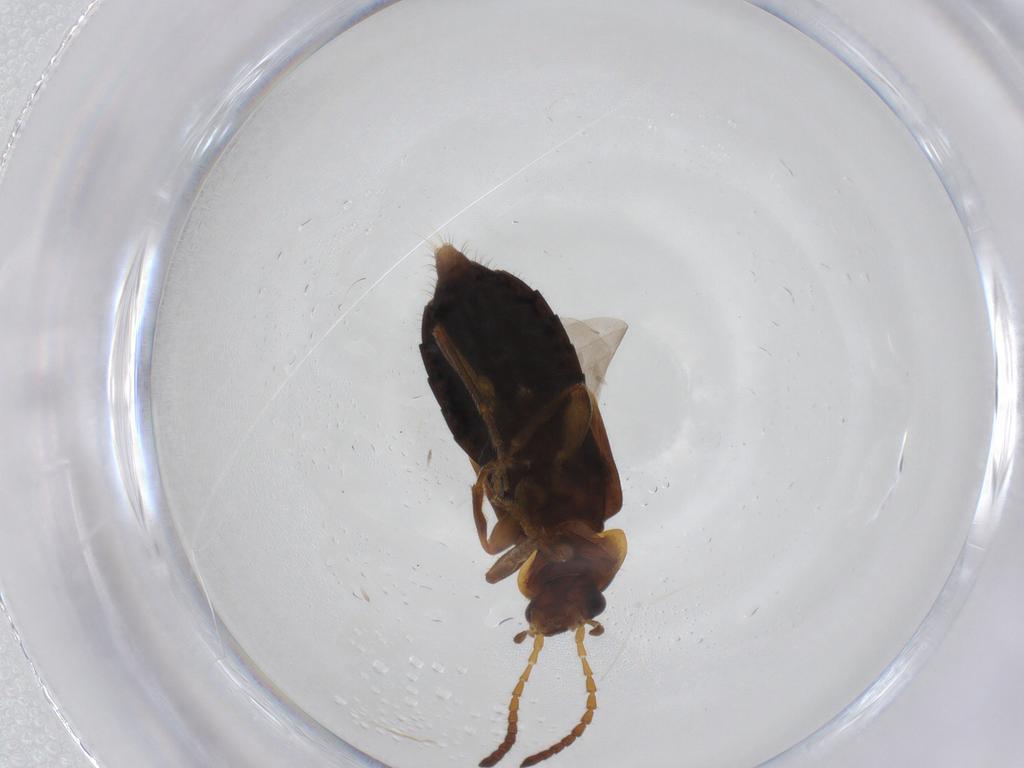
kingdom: Animalia
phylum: Arthropoda
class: Insecta
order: Coleoptera
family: Staphylinidae
